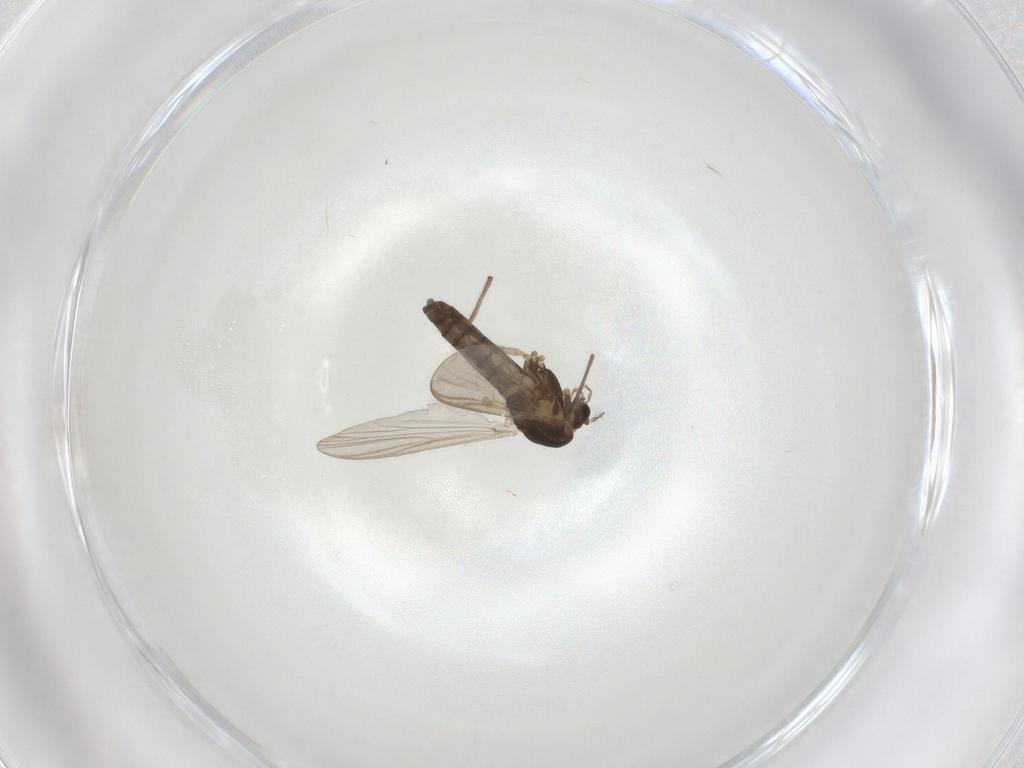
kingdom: Animalia
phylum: Arthropoda
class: Insecta
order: Diptera
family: Chironomidae
